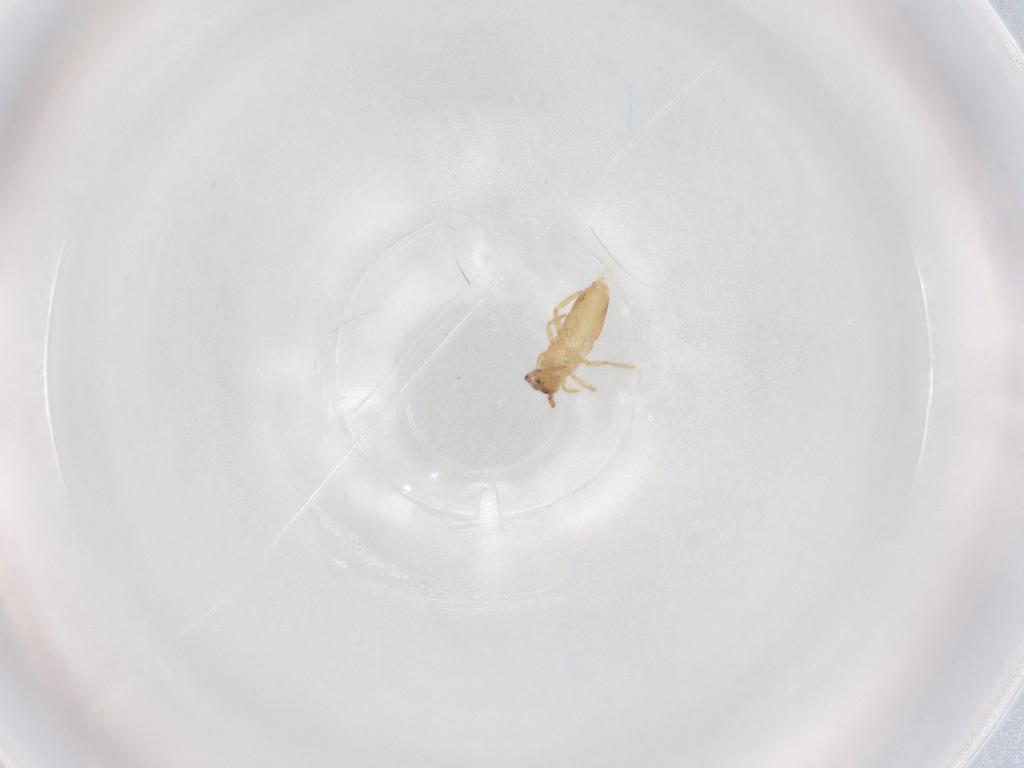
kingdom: Animalia
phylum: Arthropoda
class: Collembola
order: Entomobryomorpha
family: Entomobryidae
